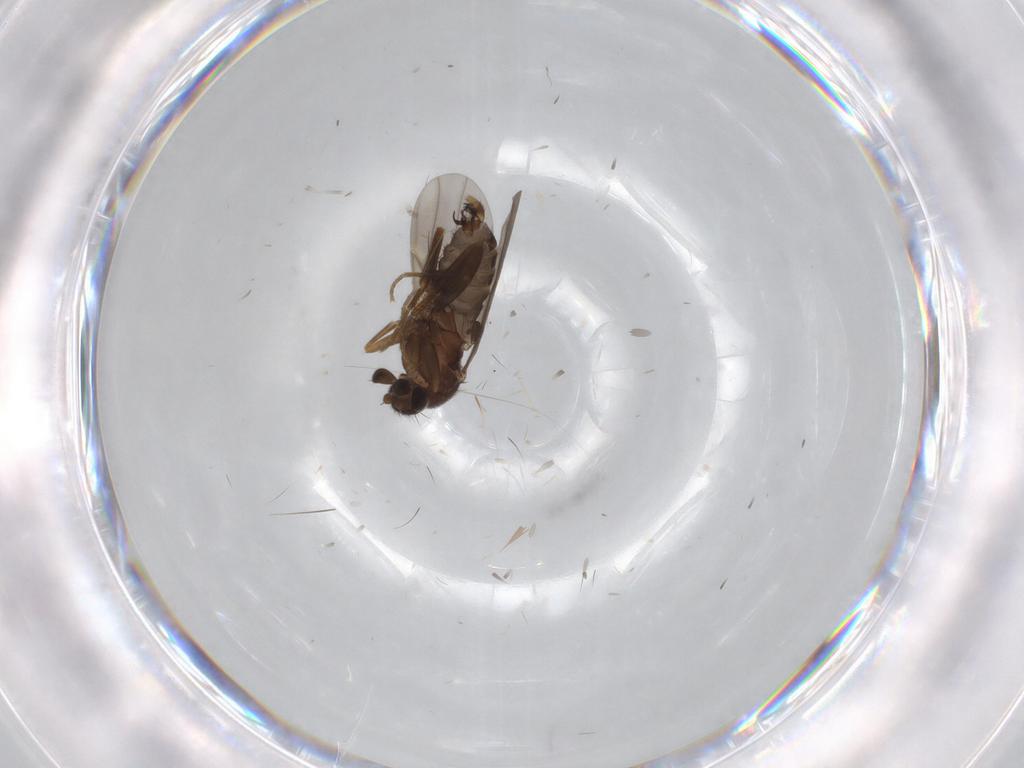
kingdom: Animalia
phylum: Arthropoda
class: Insecta
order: Diptera
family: Phoridae
